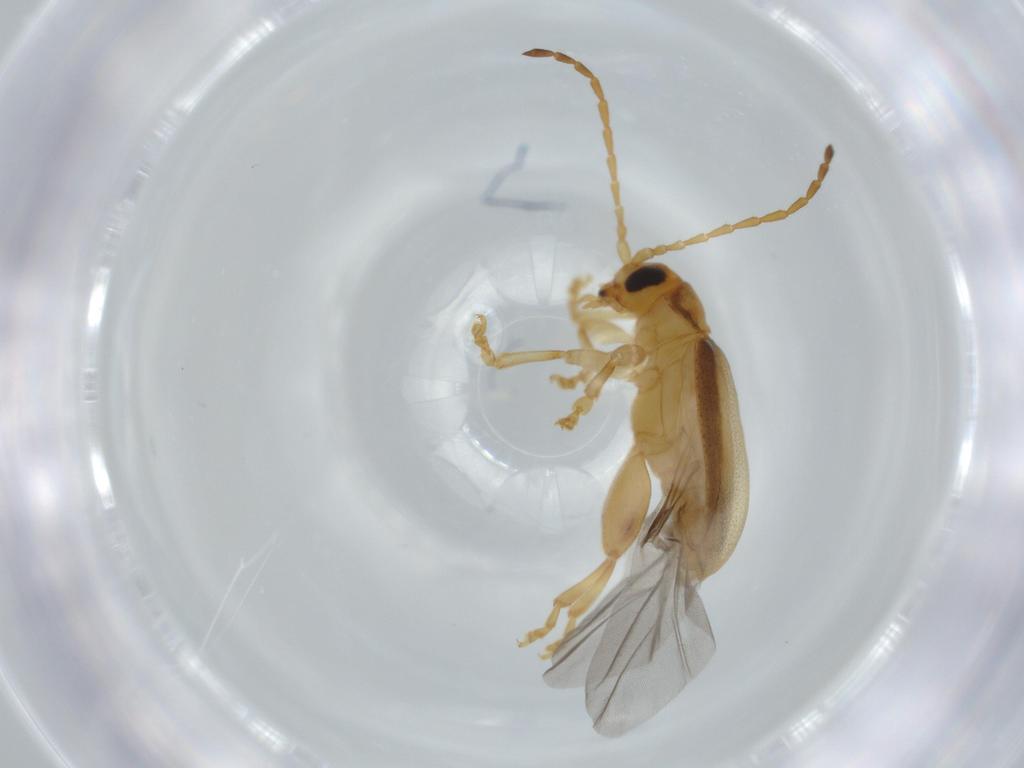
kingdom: Animalia
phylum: Arthropoda
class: Insecta
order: Coleoptera
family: Chrysomelidae
